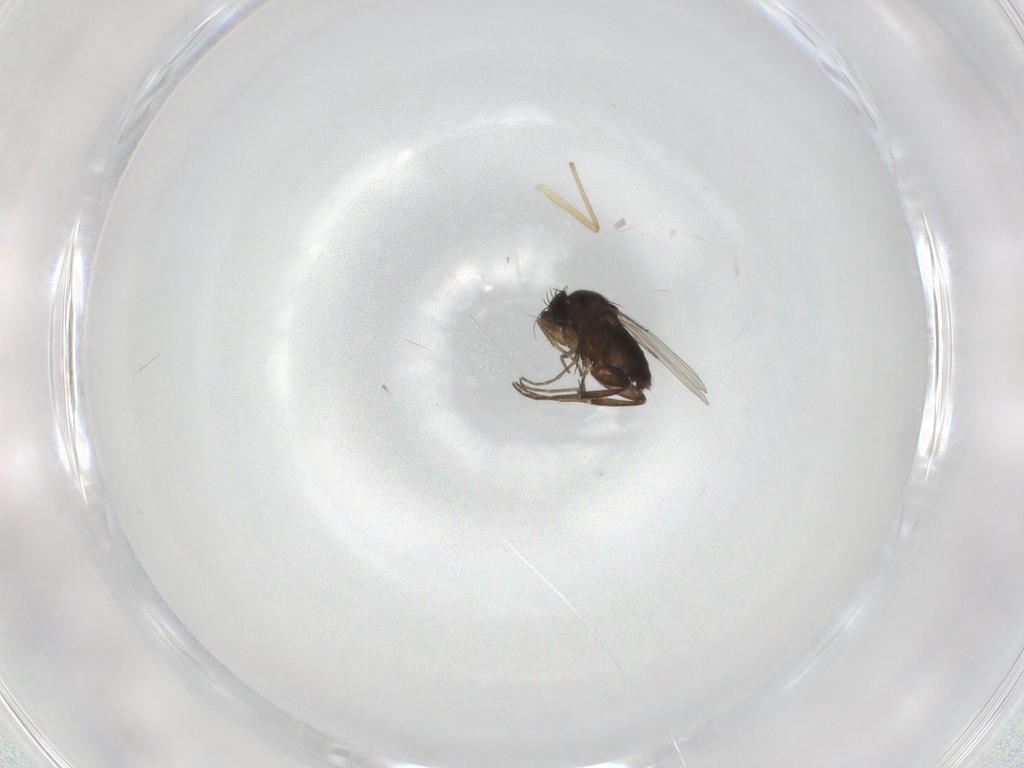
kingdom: Animalia
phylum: Arthropoda
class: Insecta
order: Diptera
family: Phoridae
